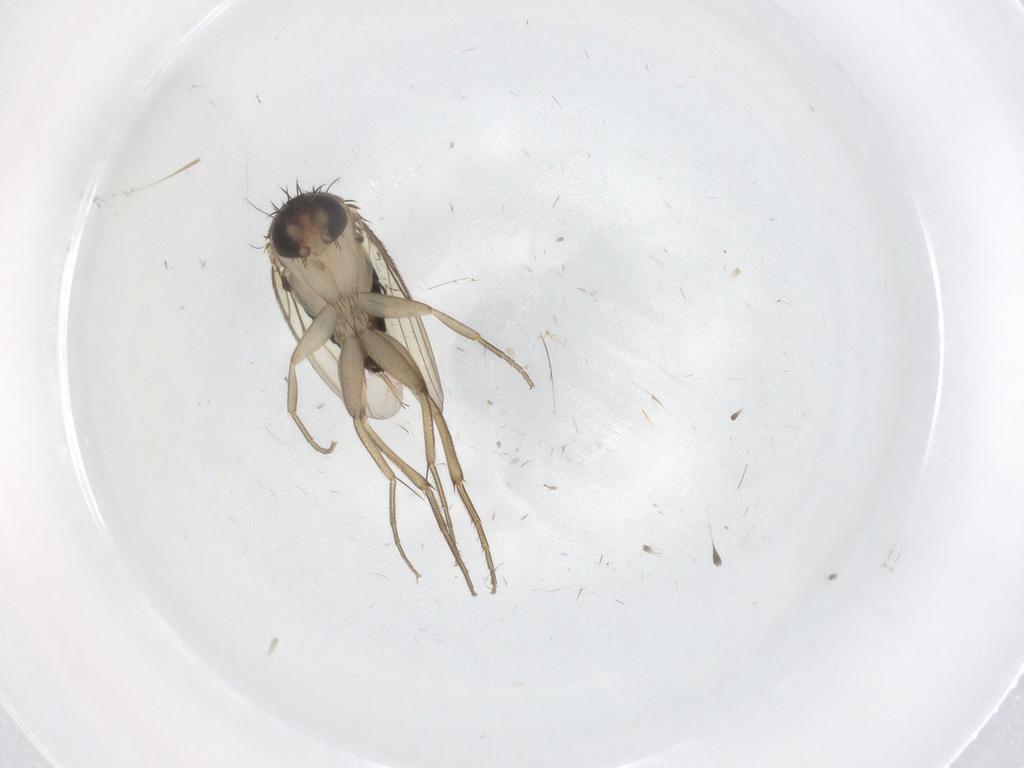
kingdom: Animalia
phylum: Arthropoda
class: Insecta
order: Diptera
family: Phoridae
